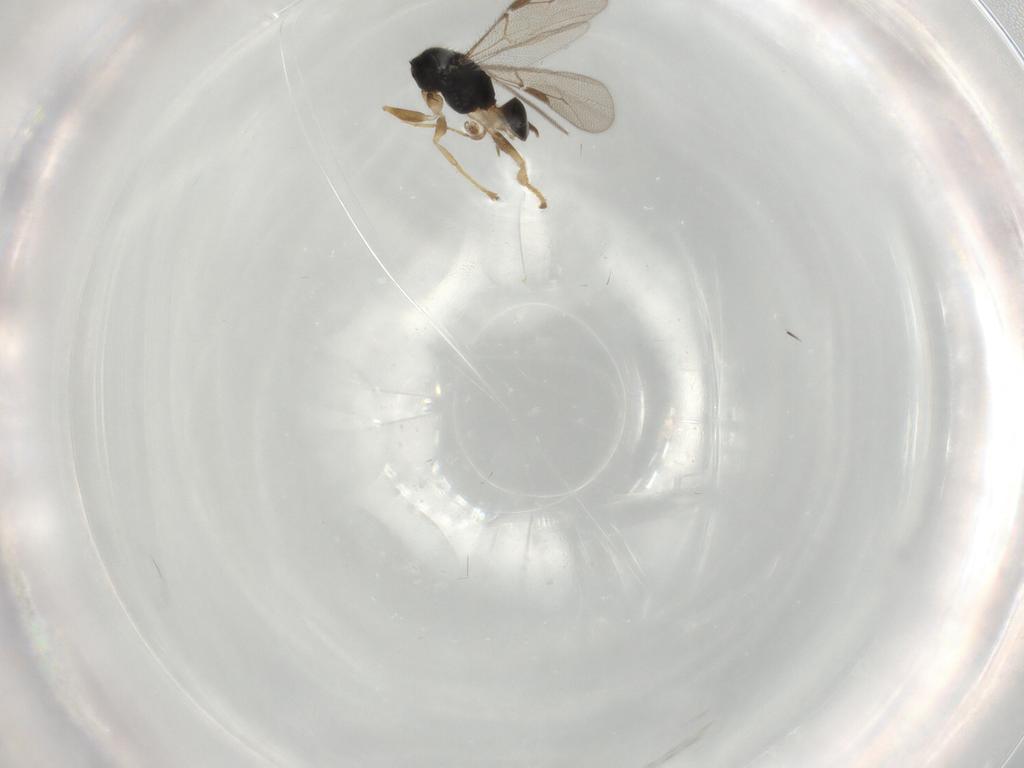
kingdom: Animalia
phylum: Arthropoda
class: Insecta
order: Hymenoptera
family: Dryinidae
